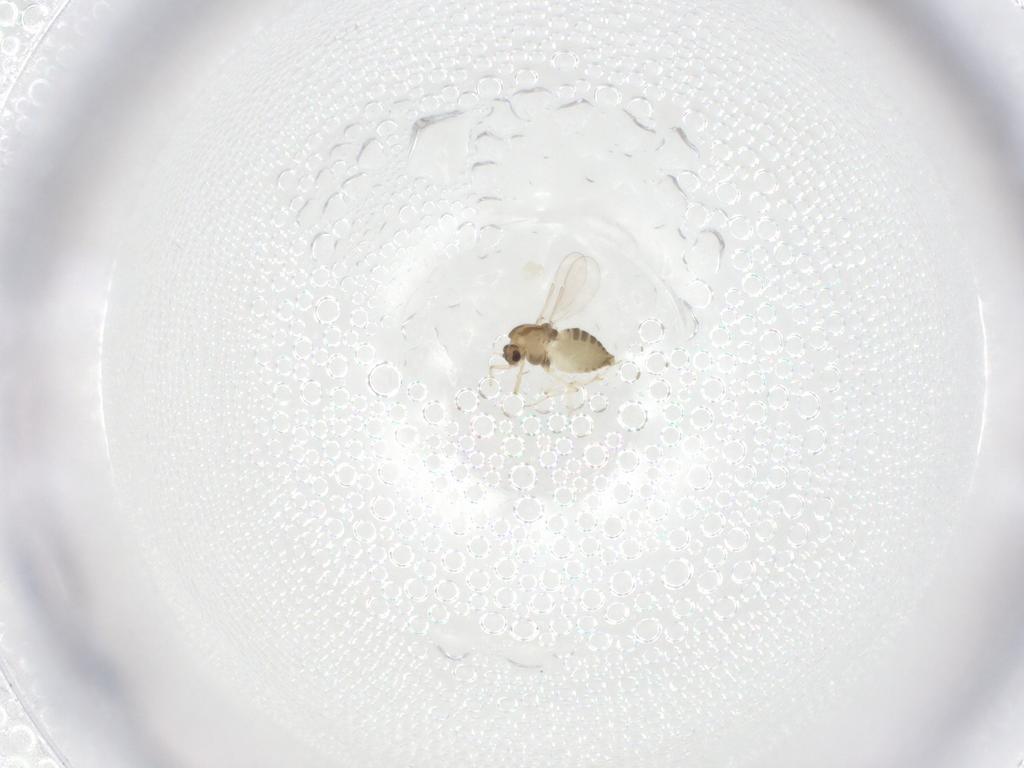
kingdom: Animalia
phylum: Arthropoda
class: Insecta
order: Diptera
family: Chironomidae
